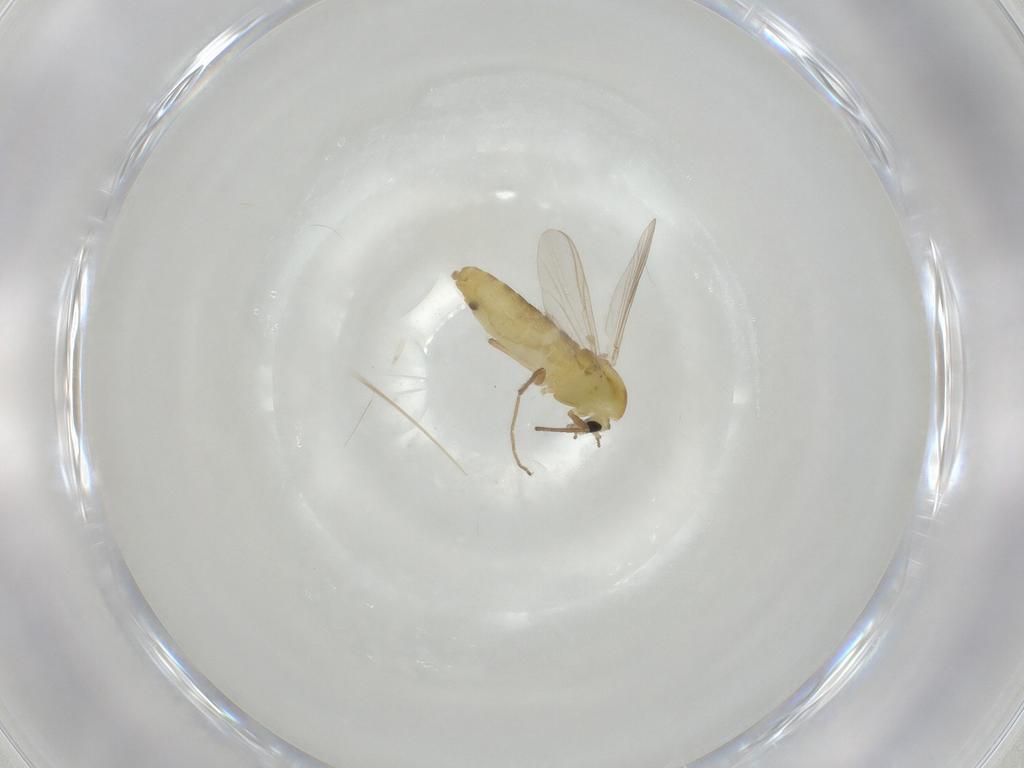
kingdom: Animalia
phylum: Arthropoda
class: Insecta
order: Diptera
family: Chironomidae
